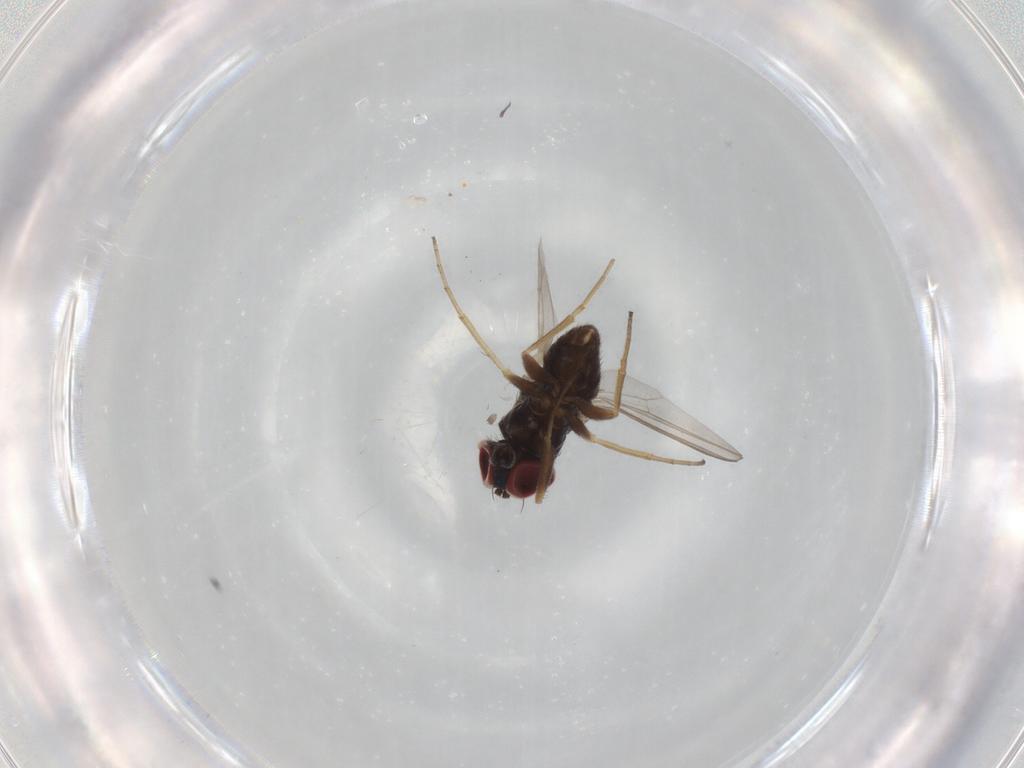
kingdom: Animalia
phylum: Arthropoda
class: Insecta
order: Diptera
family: Dolichopodidae
